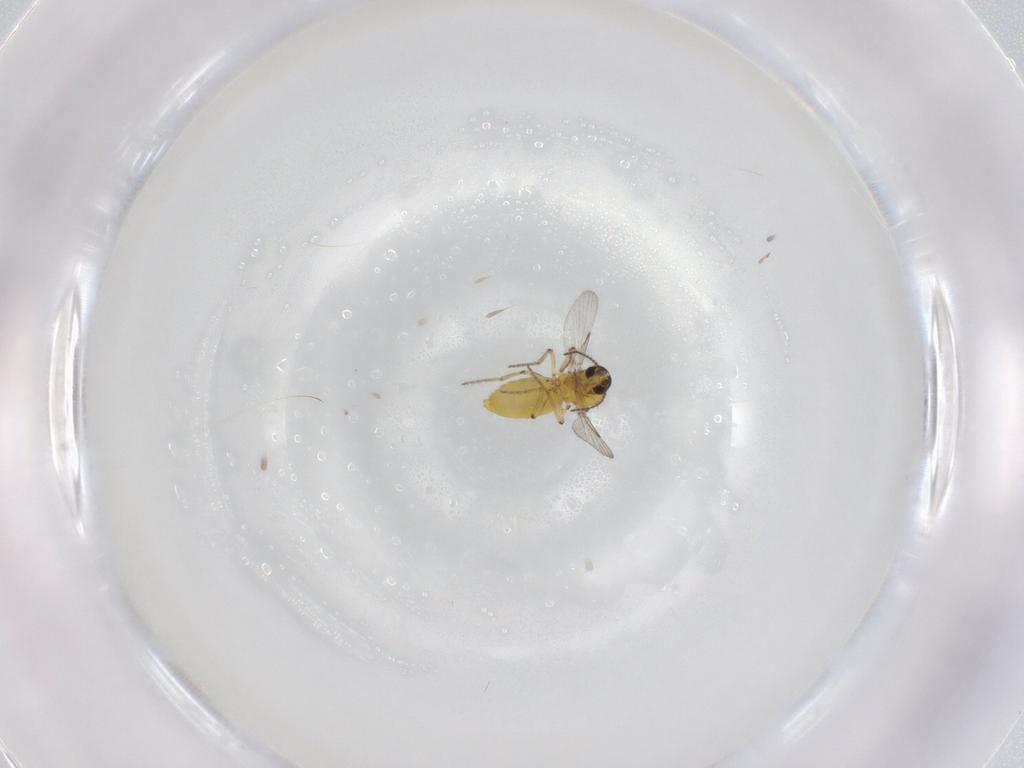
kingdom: Animalia
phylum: Arthropoda
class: Insecta
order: Diptera
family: Ceratopogonidae
